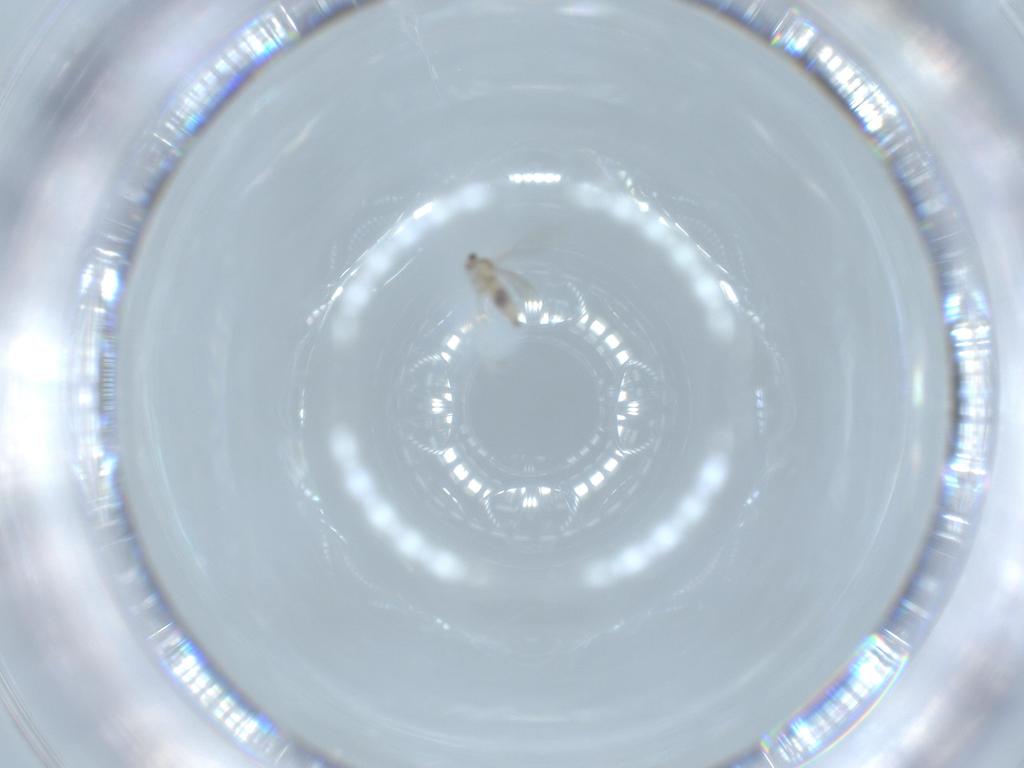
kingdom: Animalia
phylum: Arthropoda
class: Insecta
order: Diptera
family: Cecidomyiidae
